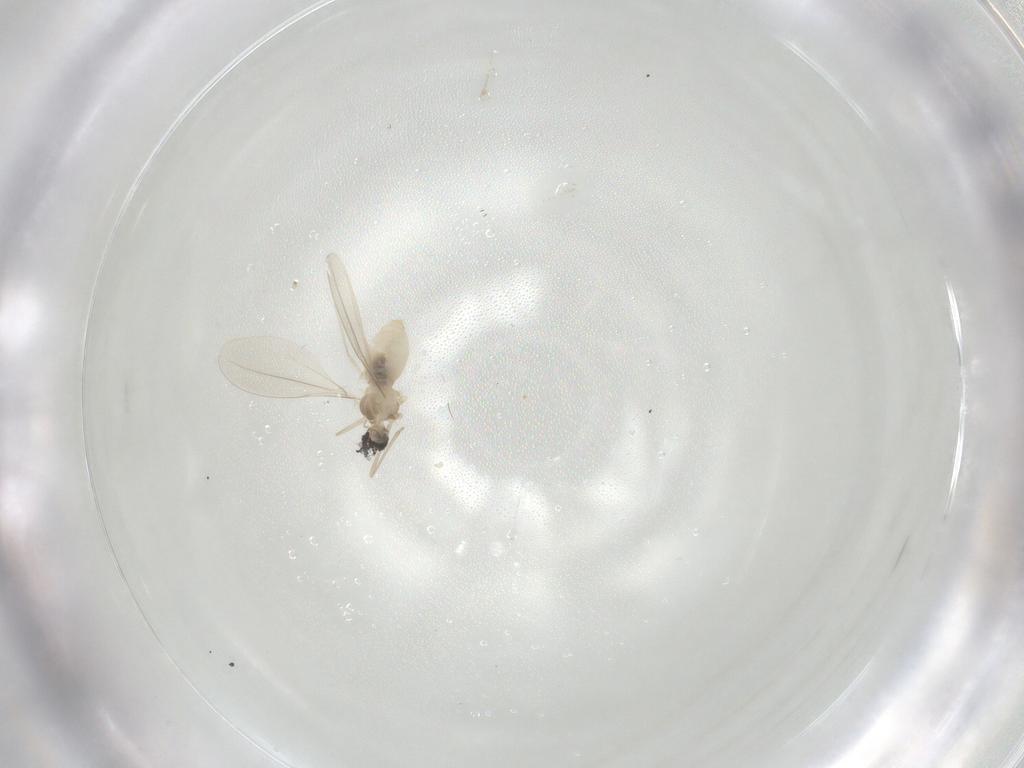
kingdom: Animalia
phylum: Arthropoda
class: Insecta
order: Diptera
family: Cecidomyiidae
